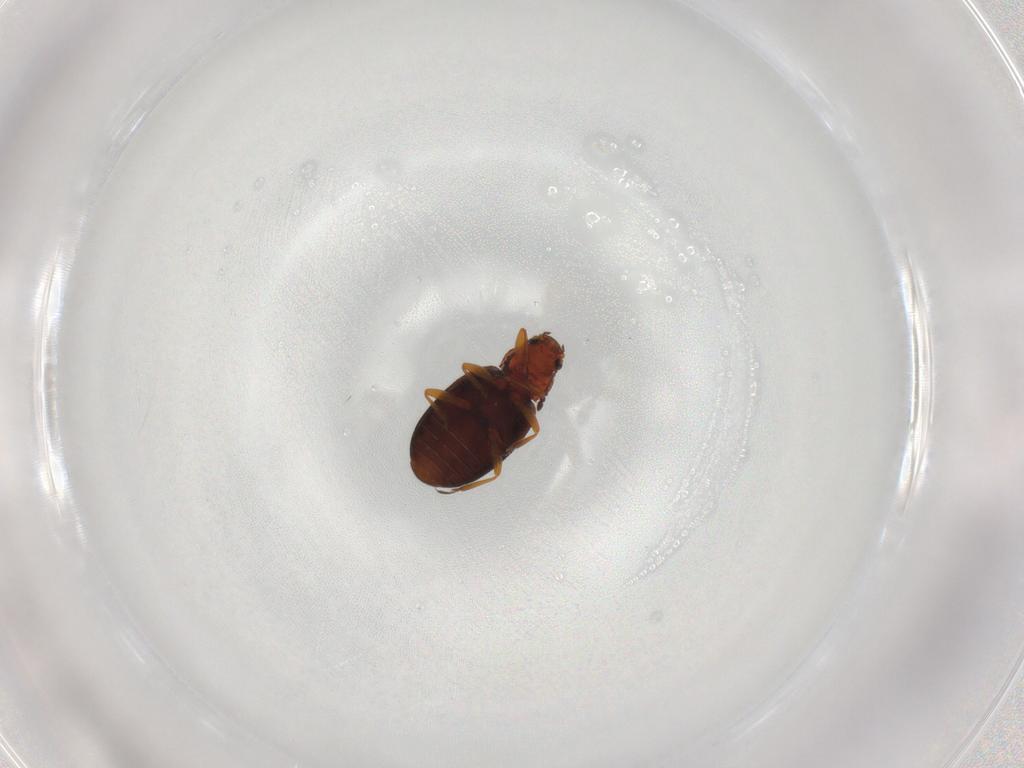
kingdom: Animalia
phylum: Arthropoda
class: Insecta
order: Coleoptera
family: Latridiidae
